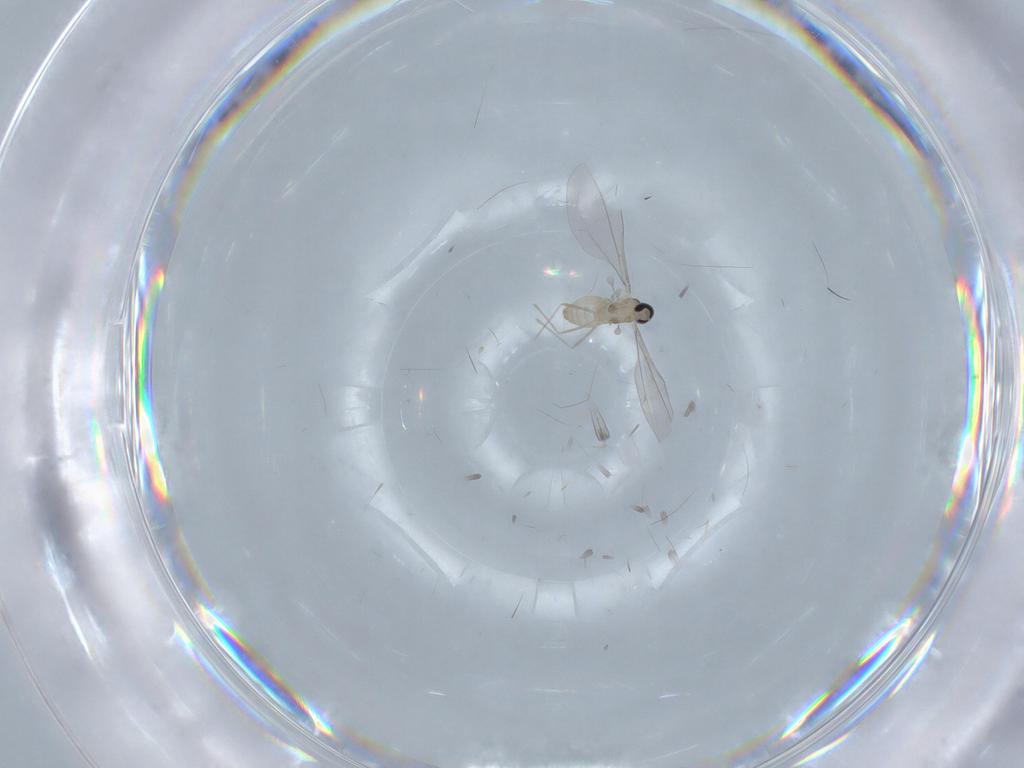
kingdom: Animalia
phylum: Arthropoda
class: Insecta
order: Diptera
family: Cecidomyiidae
